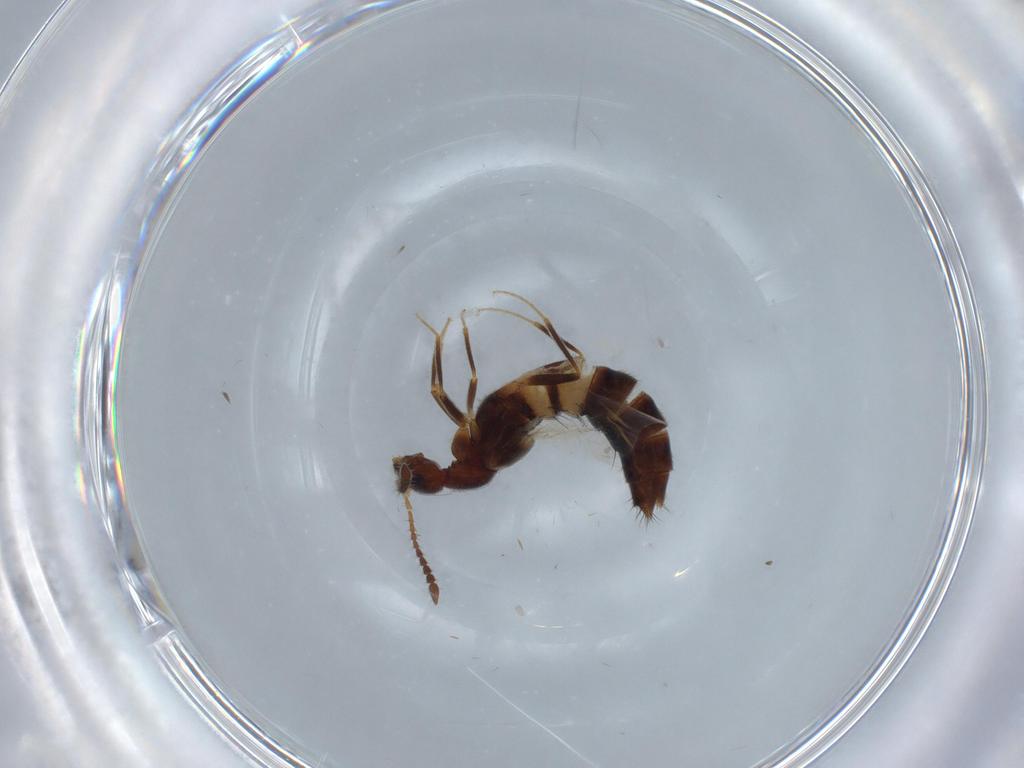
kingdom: Animalia
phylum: Arthropoda
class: Insecta
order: Coleoptera
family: Staphylinidae
